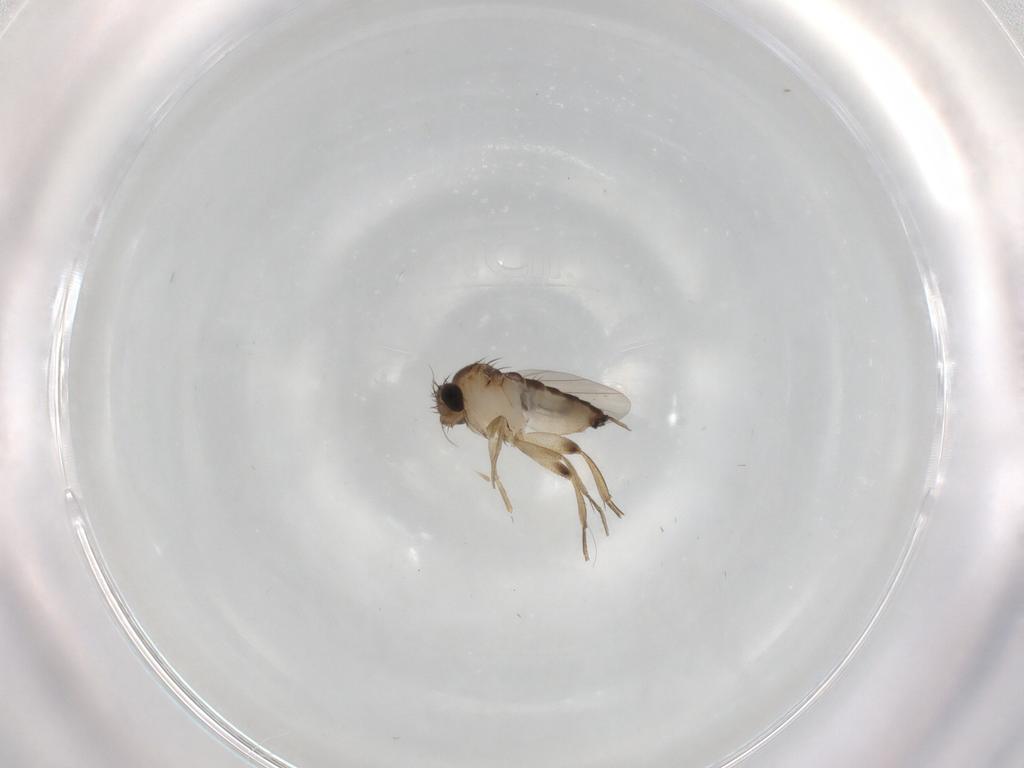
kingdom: Animalia
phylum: Arthropoda
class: Insecta
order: Diptera
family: Phoridae
